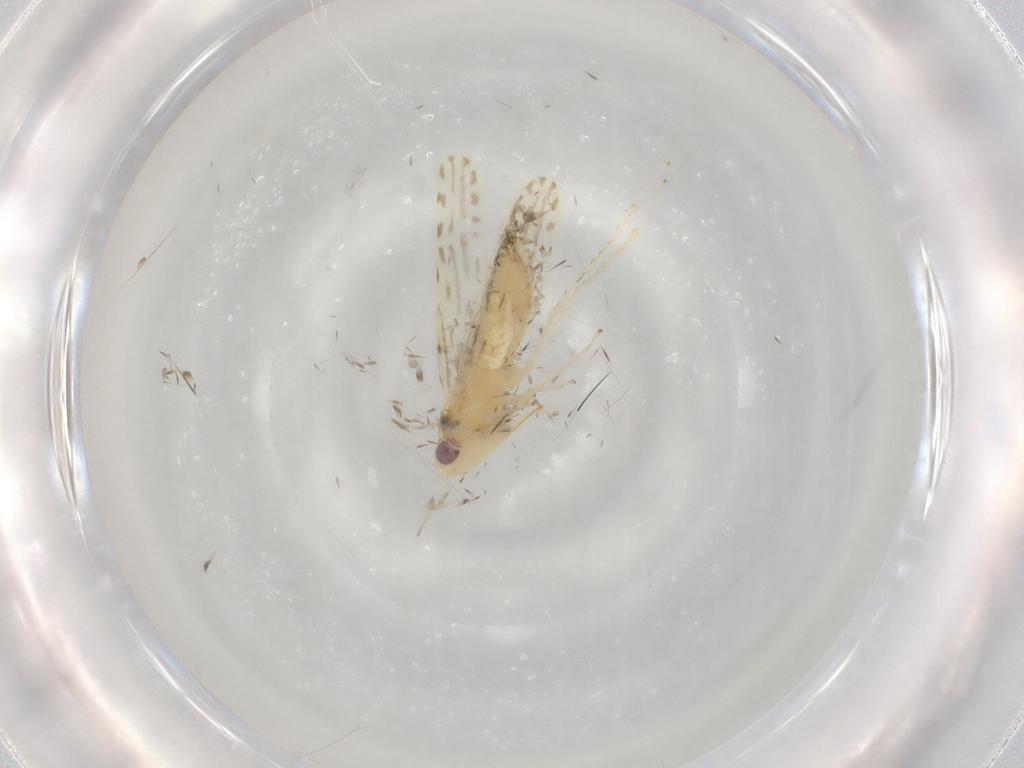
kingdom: Animalia
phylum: Arthropoda
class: Insecta
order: Hemiptera
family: Cicadellidae
